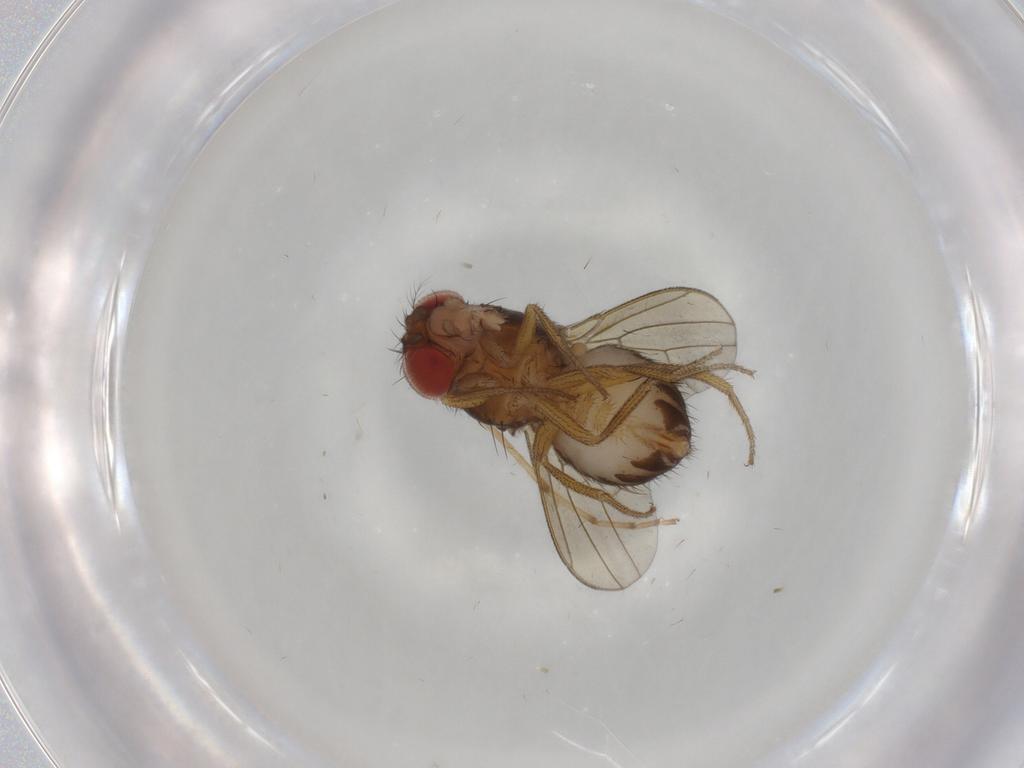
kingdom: Animalia
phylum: Arthropoda
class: Insecta
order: Diptera
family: Drosophilidae
